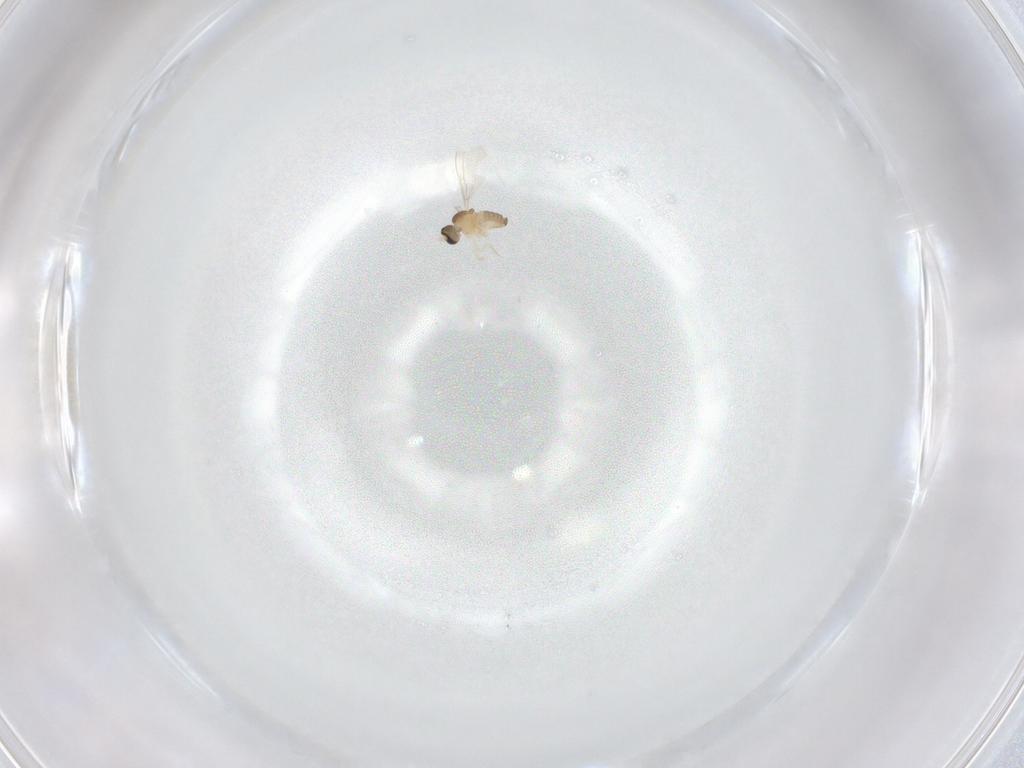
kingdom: Animalia
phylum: Arthropoda
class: Insecta
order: Diptera
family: Cecidomyiidae
